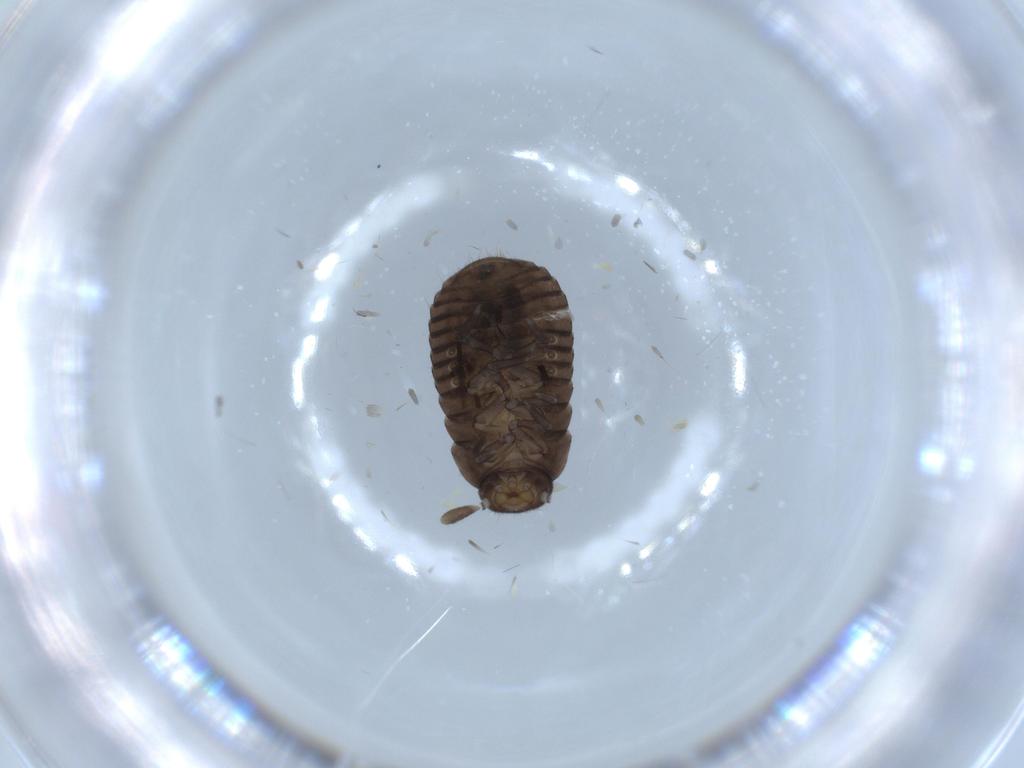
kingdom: Animalia
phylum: Arthropoda
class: Insecta
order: Coleoptera
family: Tenebrionidae
